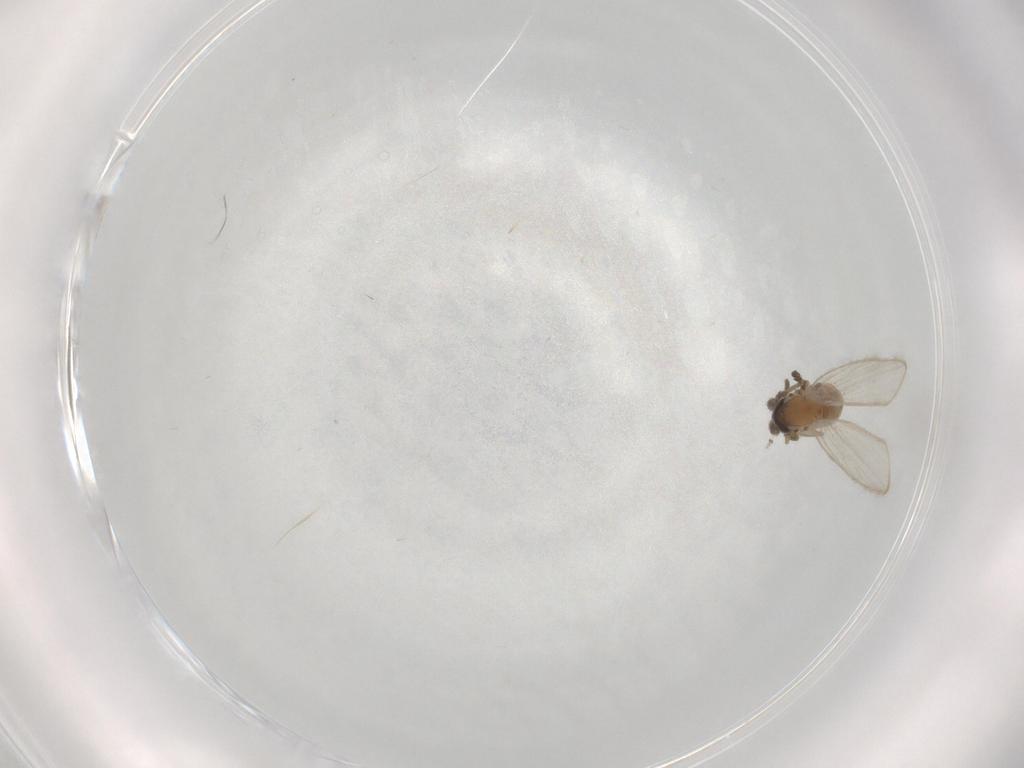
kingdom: Animalia
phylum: Arthropoda
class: Insecta
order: Diptera
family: Psychodidae
